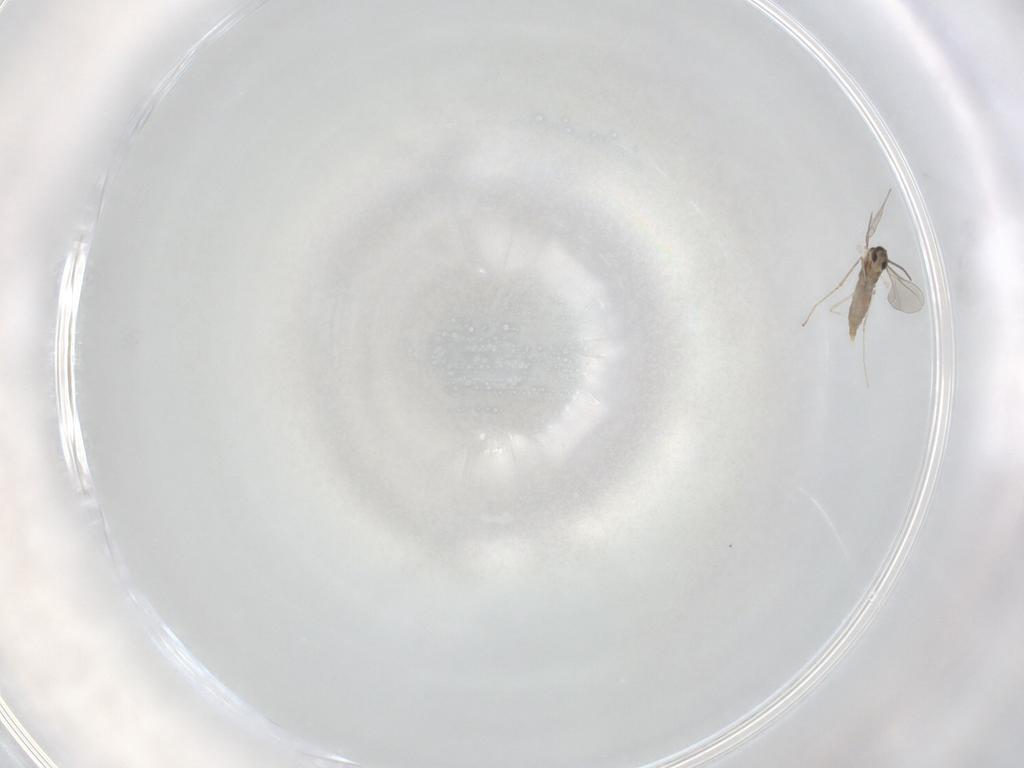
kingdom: Animalia
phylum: Arthropoda
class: Insecta
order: Diptera
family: Cecidomyiidae
